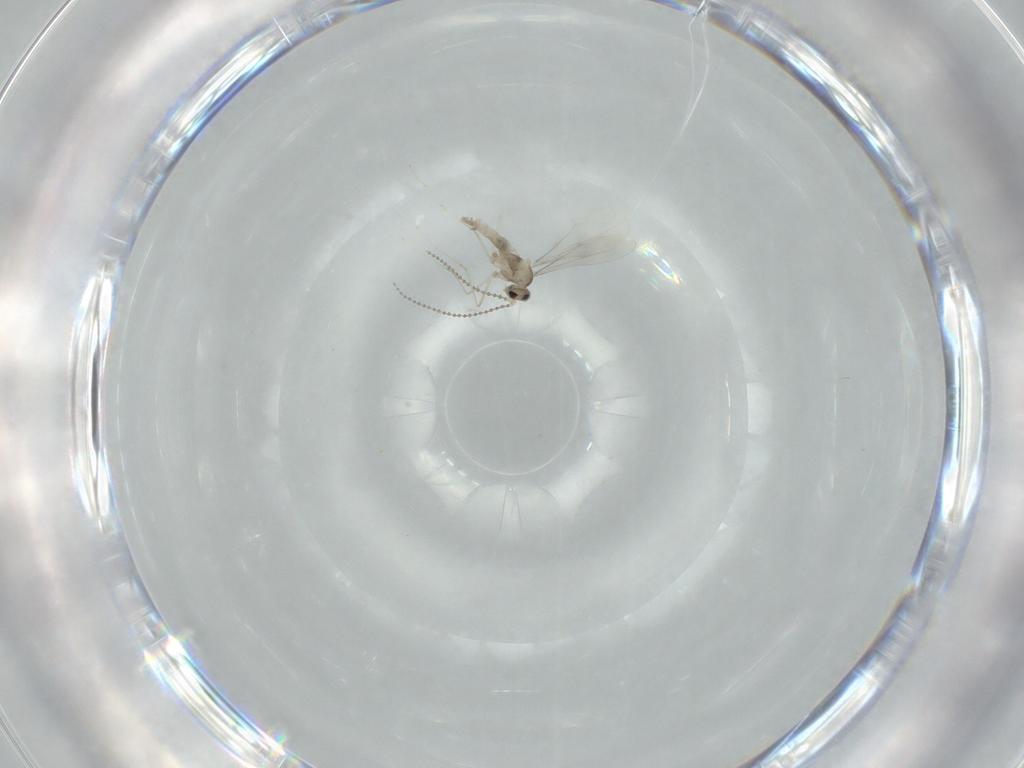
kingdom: Animalia
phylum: Arthropoda
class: Insecta
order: Diptera
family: Cecidomyiidae
